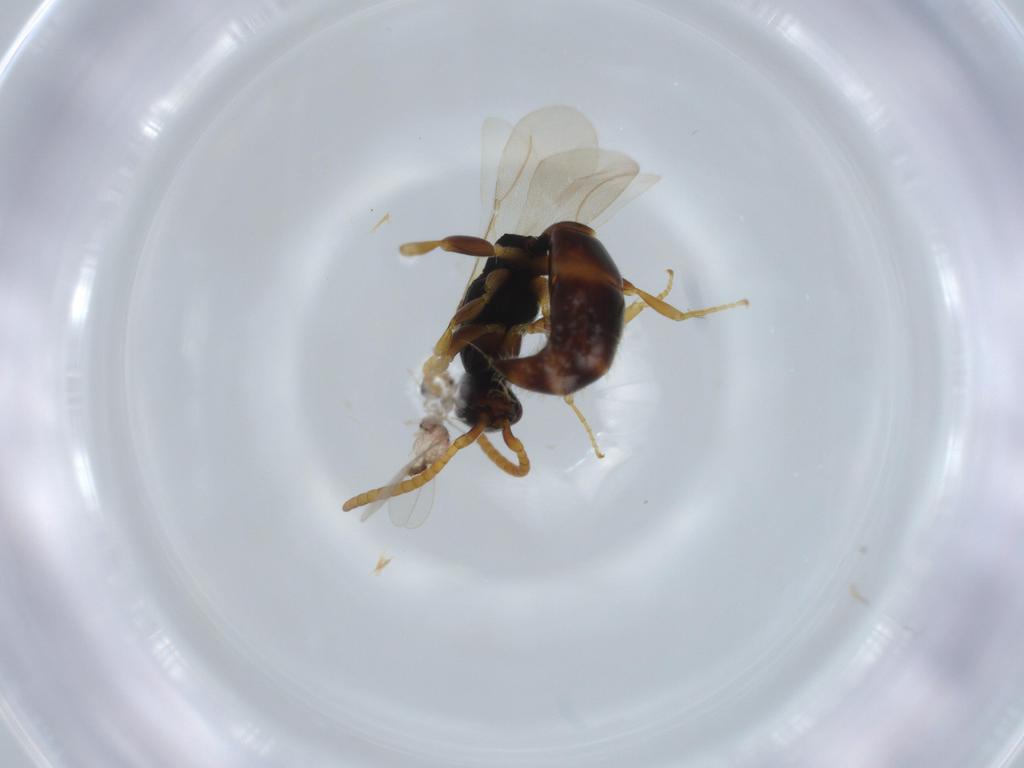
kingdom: Animalia
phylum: Arthropoda
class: Insecta
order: Hymenoptera
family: Bethylidae
